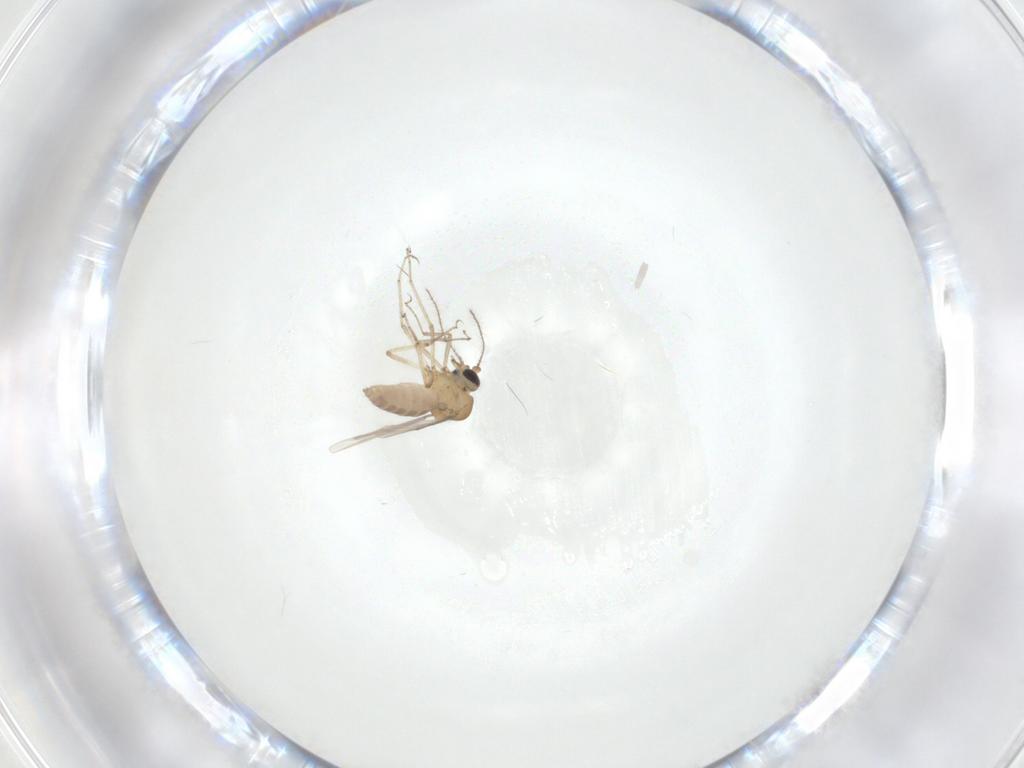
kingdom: Animalia
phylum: Arthropoda
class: Insecta
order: Diptera
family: Ceratopogonidae
